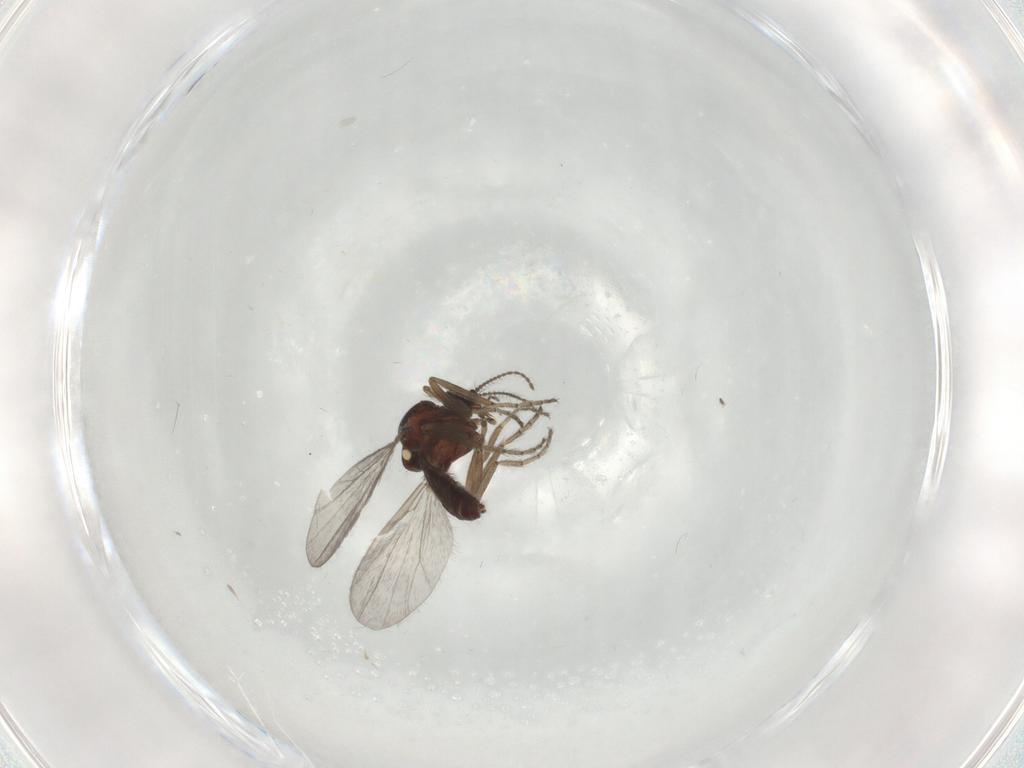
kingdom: Animalia
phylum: Arthropoda
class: Insecta
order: Diptera
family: Ceratopogonidae
